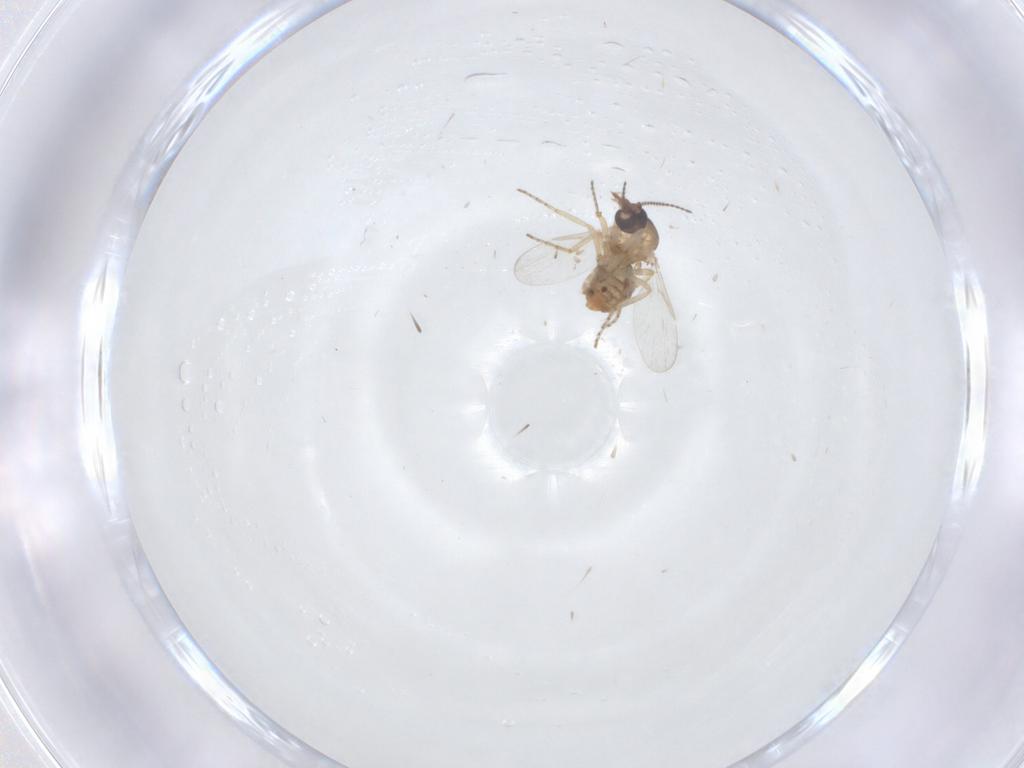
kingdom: Animalia
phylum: Arthropoda
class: Insecta
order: Diptera
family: Ceratopogonidae
